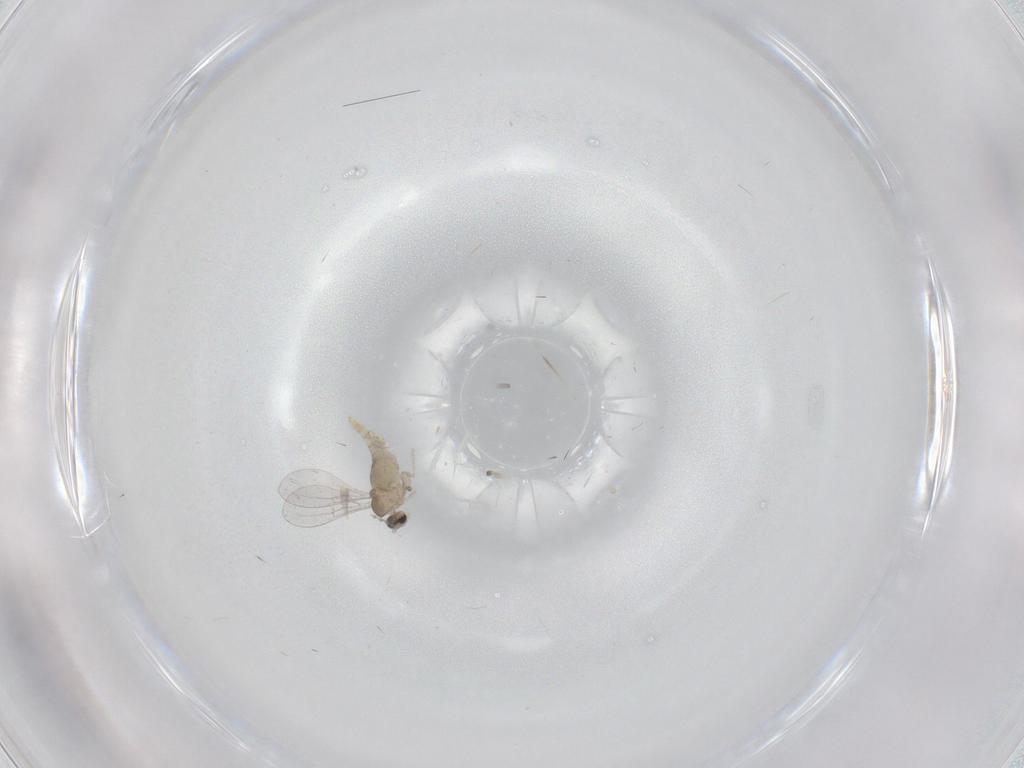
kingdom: Animalia
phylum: Arthropoda
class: Insecta
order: Diptera
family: Cecidomyiidae
